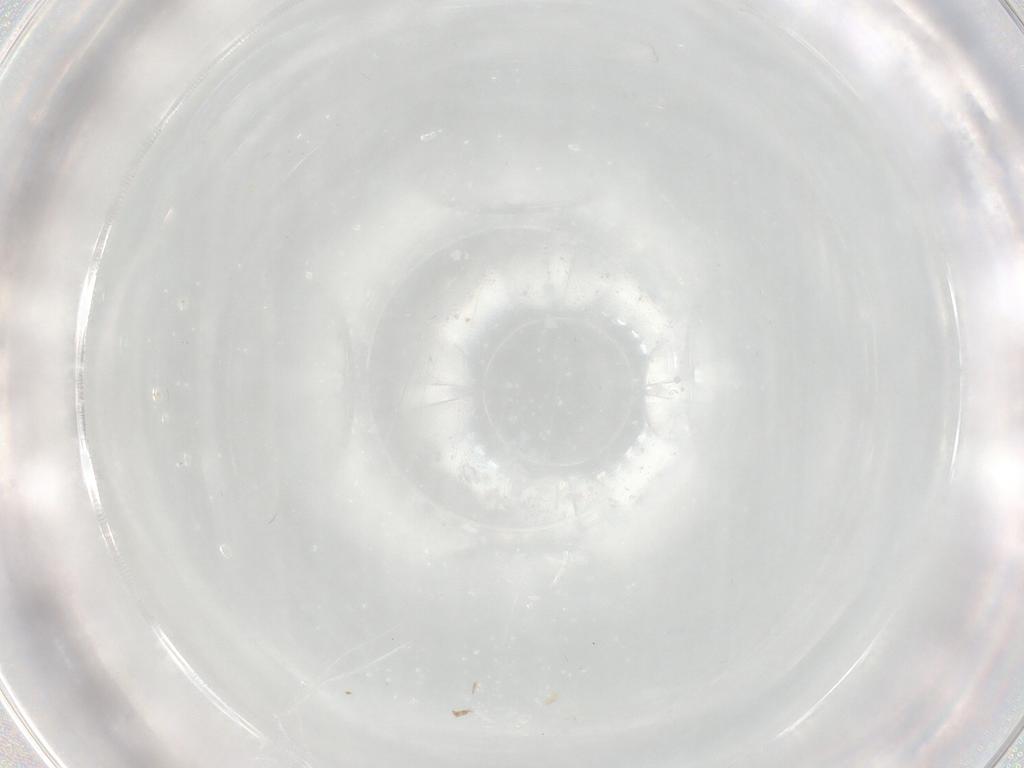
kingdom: Animalia
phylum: Arthropoda
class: Insecta
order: Hymenoptera
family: Scelionidae
